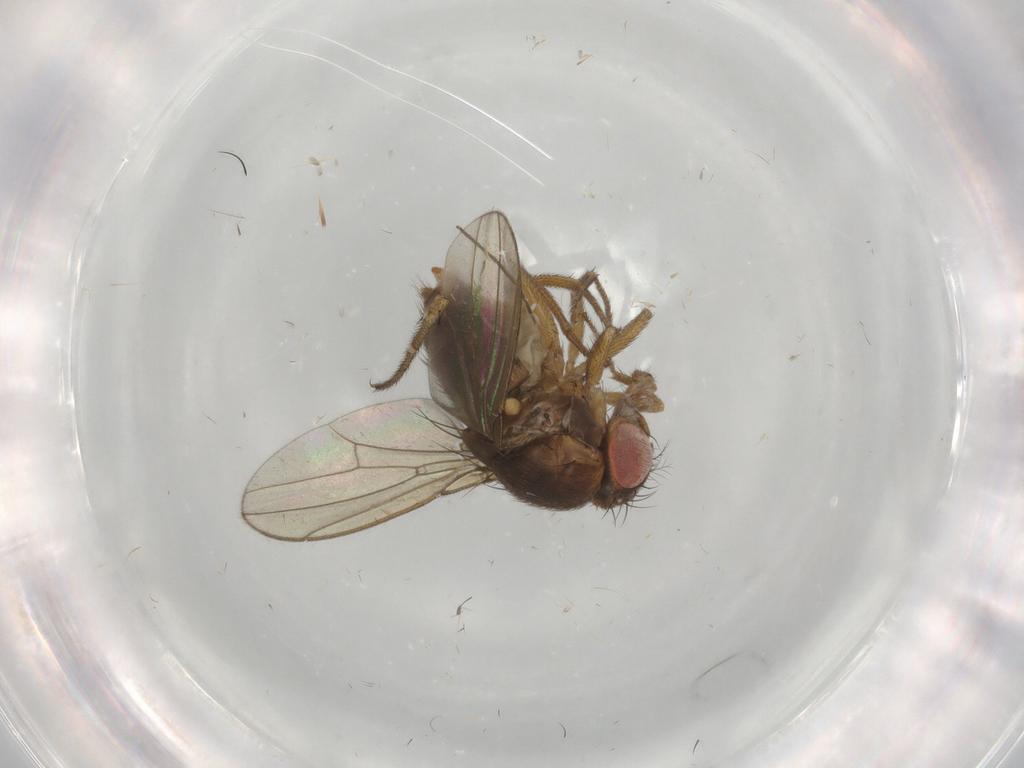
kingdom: Animalia
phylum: Arthropoda
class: Insecta
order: Diptera
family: Drosophilidae
